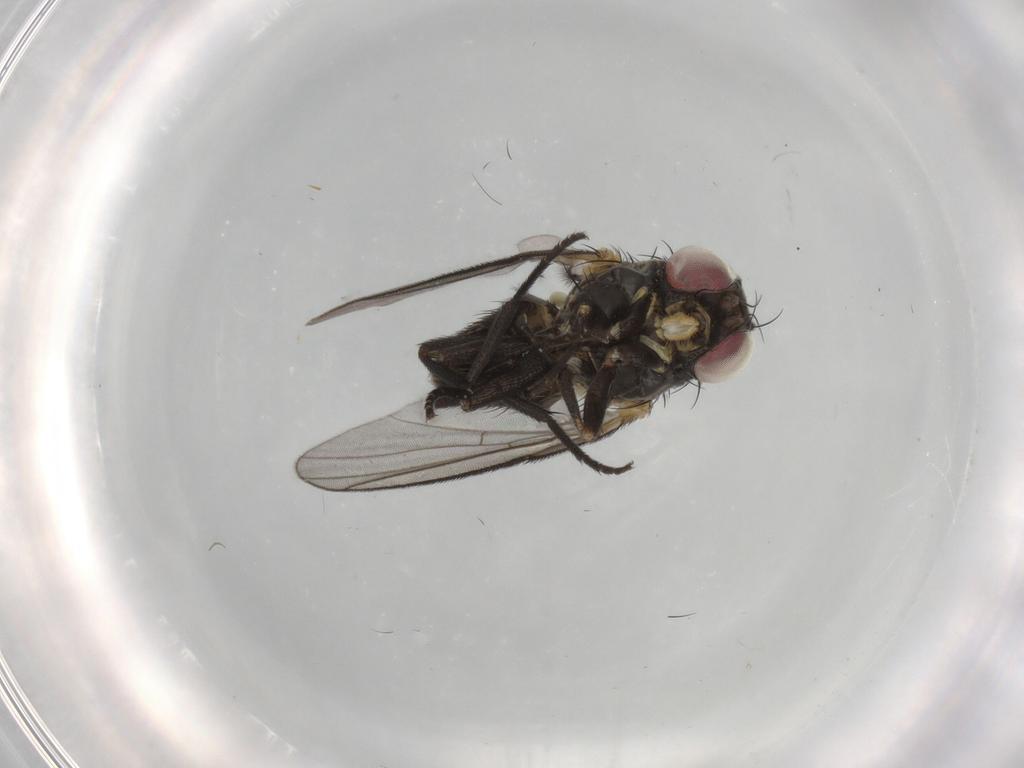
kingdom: Animalia
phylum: Arthropoda
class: Insecta
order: Diptera
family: Agromyzidae
